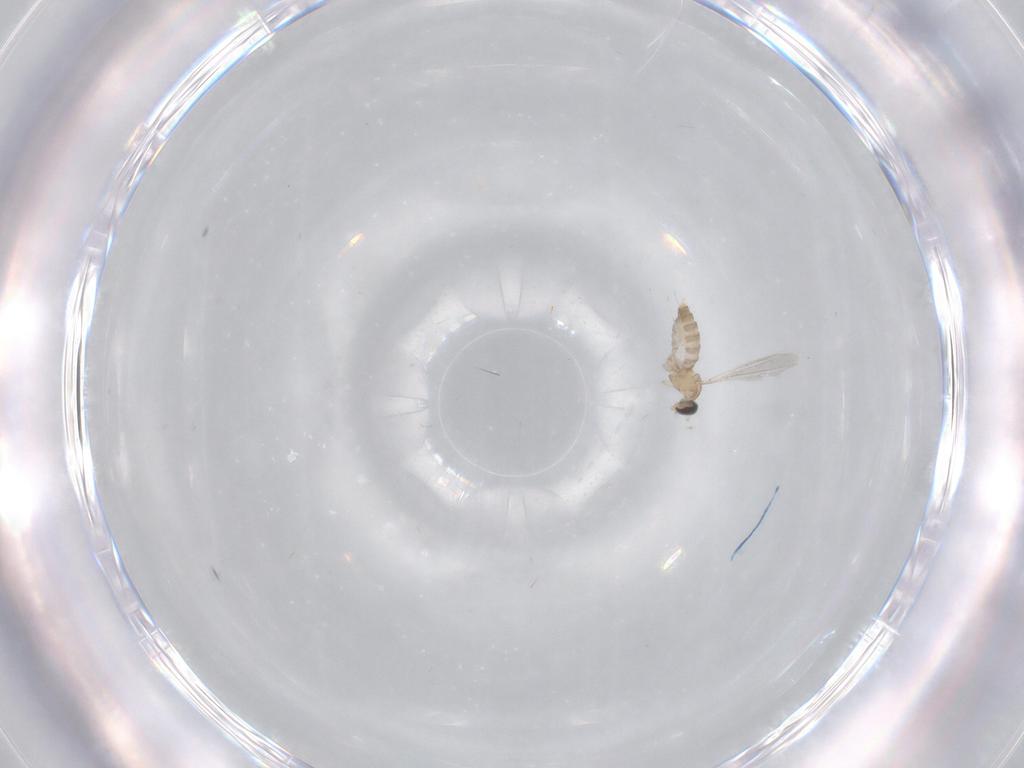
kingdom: Animalia
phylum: Arthropoda
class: Insecta
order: Diptera
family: Cecidomyiidae
